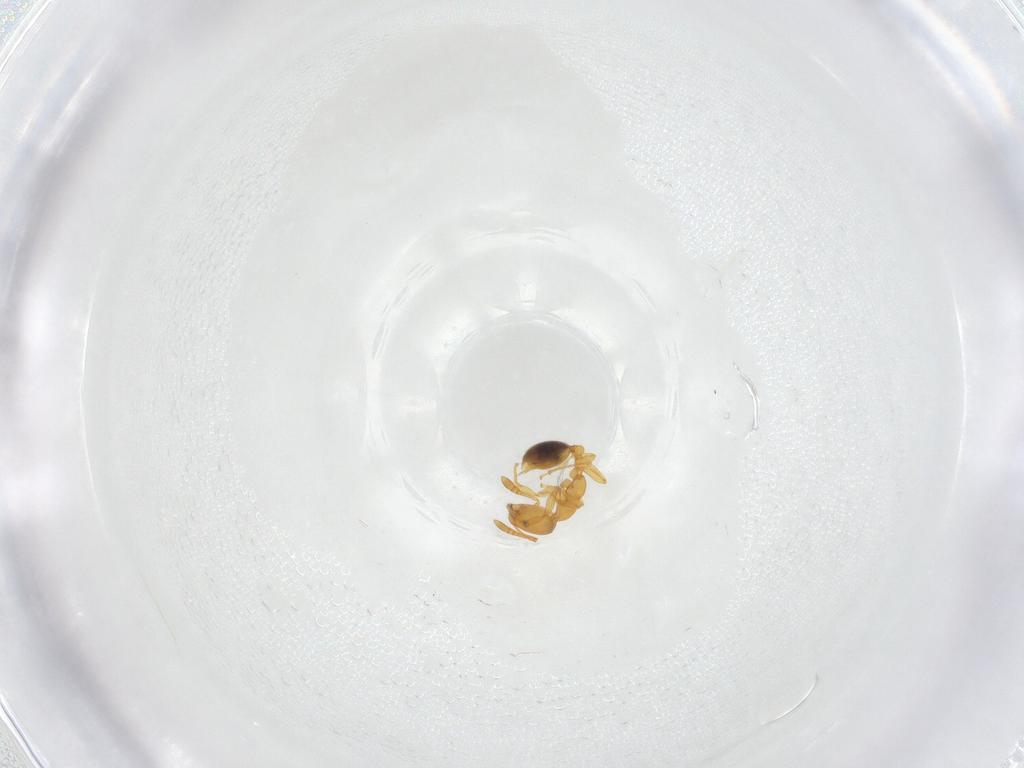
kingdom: Animalia
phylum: Arthropoda
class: Insecta
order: Hymenoptera
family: Formicidae
